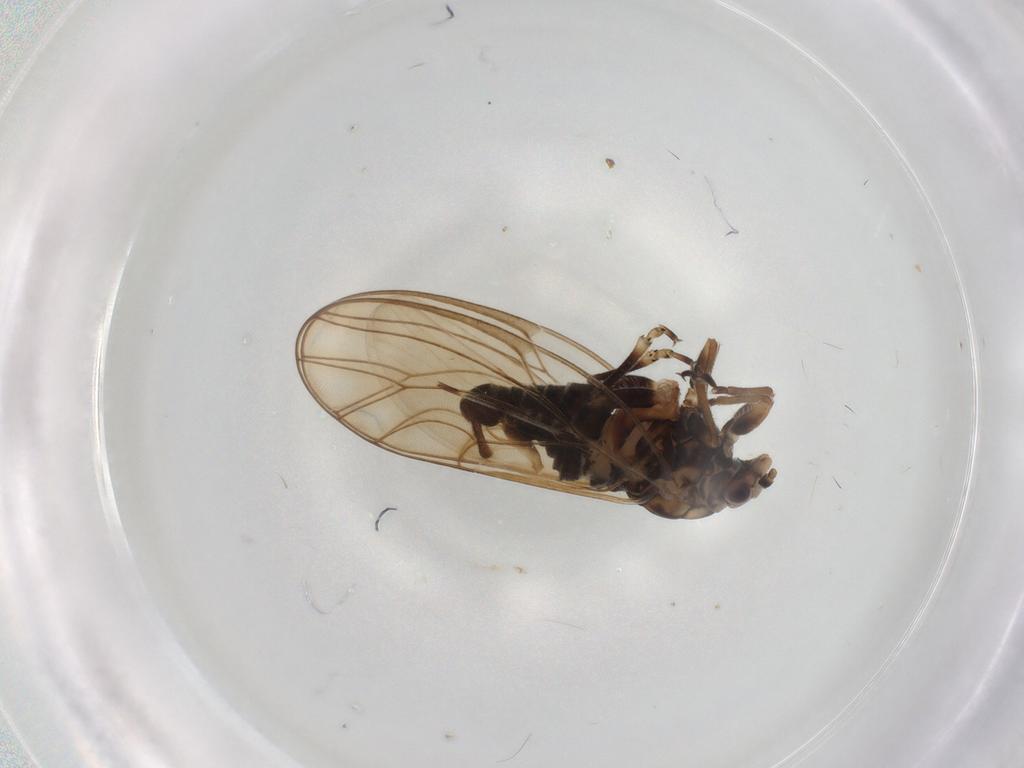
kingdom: Animalia
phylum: Arthropoda
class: Insecta
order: Hemiptera
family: Psyllidae
